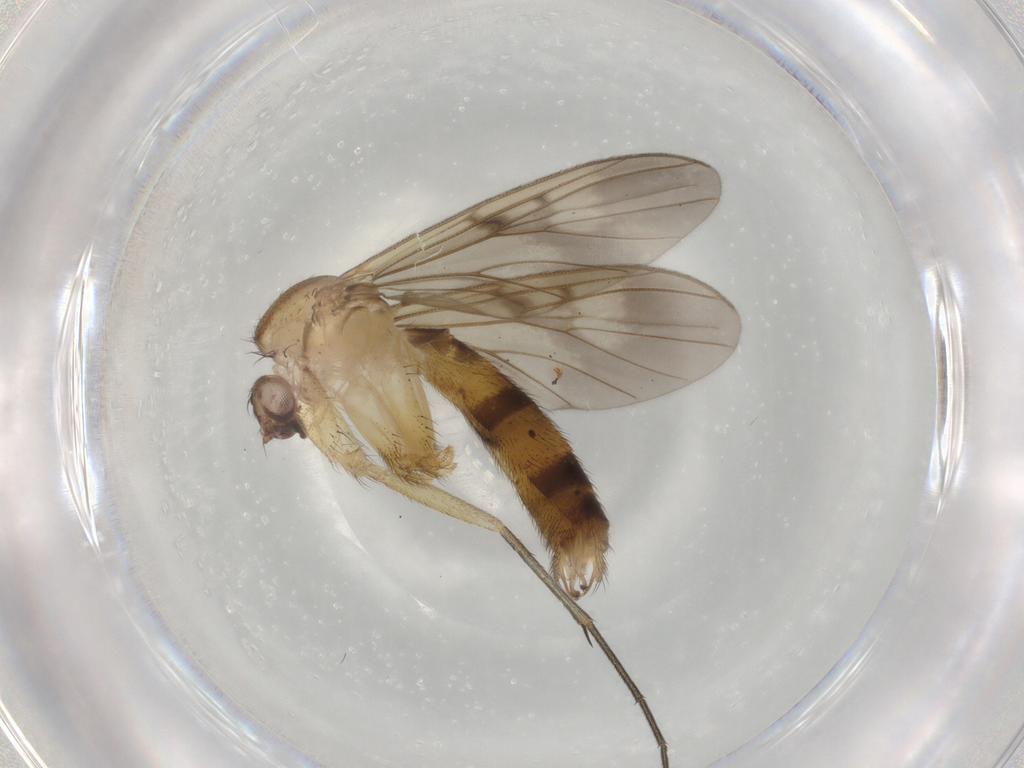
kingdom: Animalia
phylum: Arthropoda
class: Insecta
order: Diptera
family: Mycetophilidae
